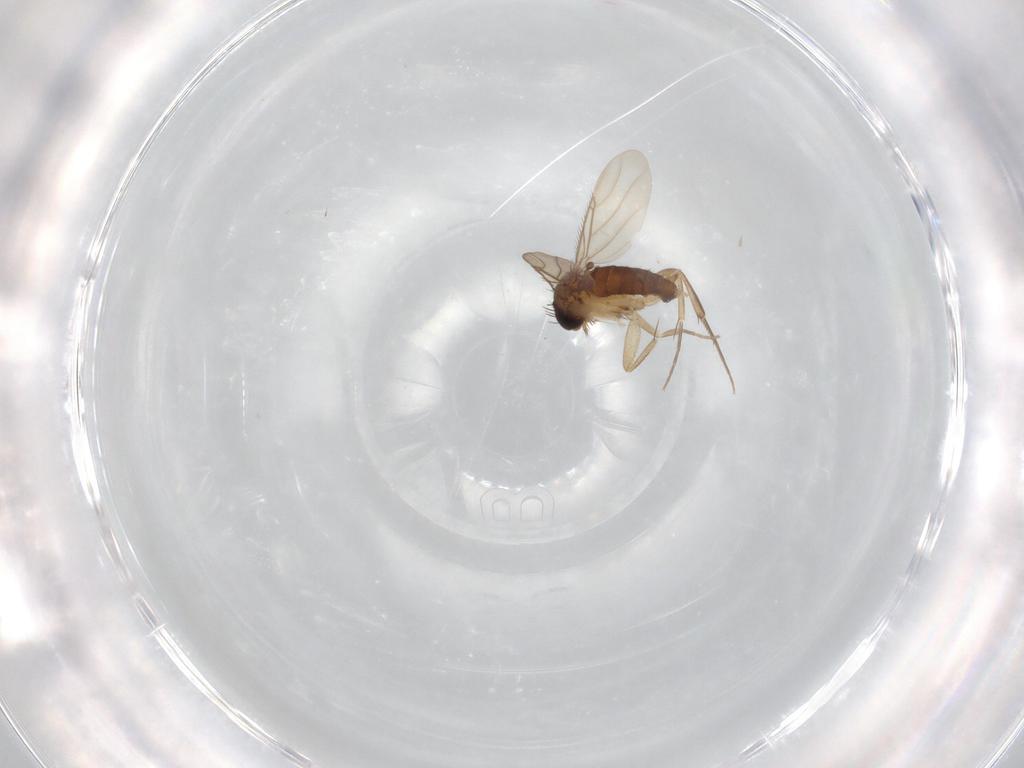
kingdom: Animalia
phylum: Arthropoda
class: Insecta
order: Diptera
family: Phoridae
